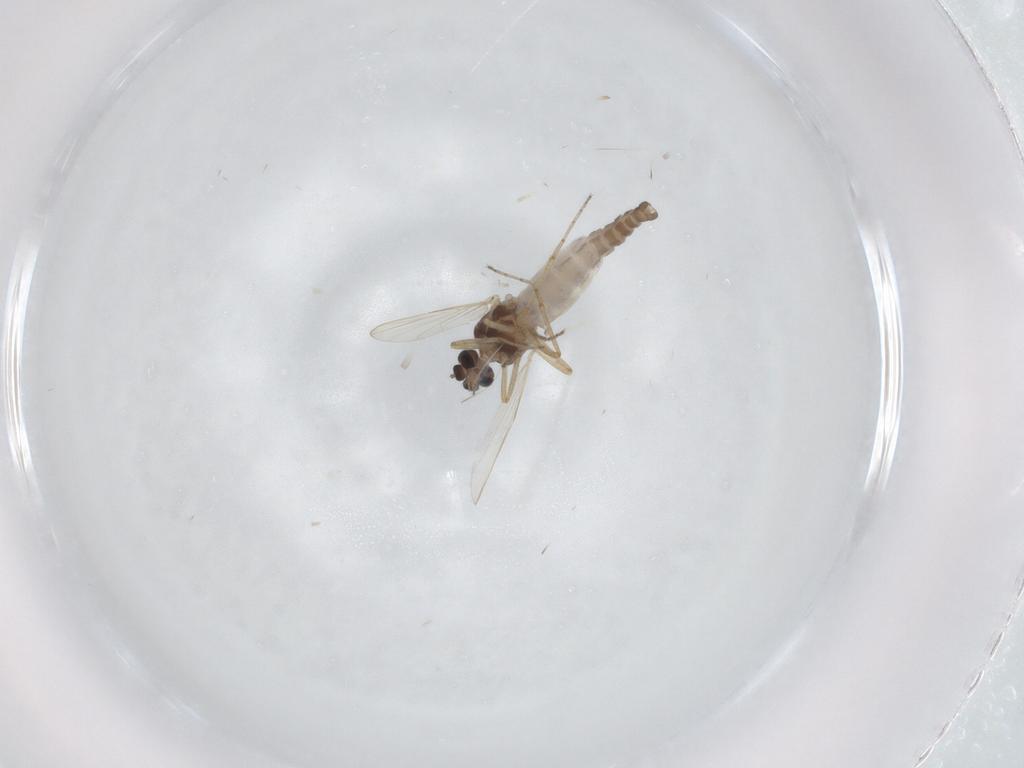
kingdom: Animalia
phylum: Arthropoda
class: Insecta
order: Diptera
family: Ceratopogonidae
